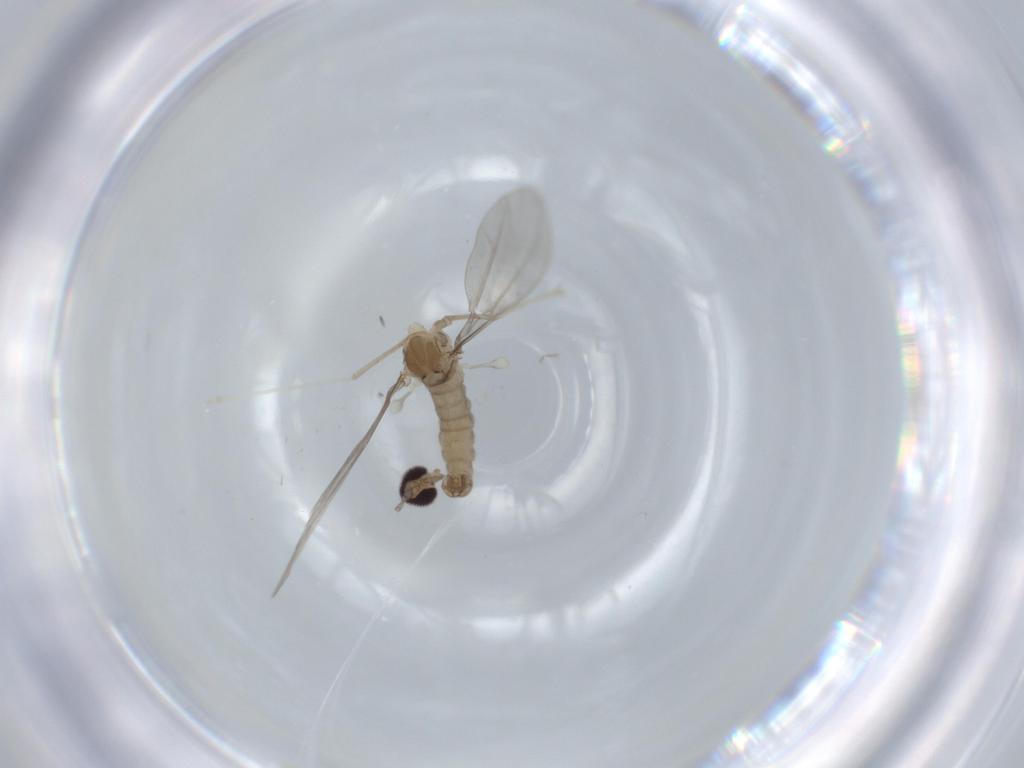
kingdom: Animalia
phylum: Arthropoda
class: Insecta
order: Diptera
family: Cecidomyiidae
